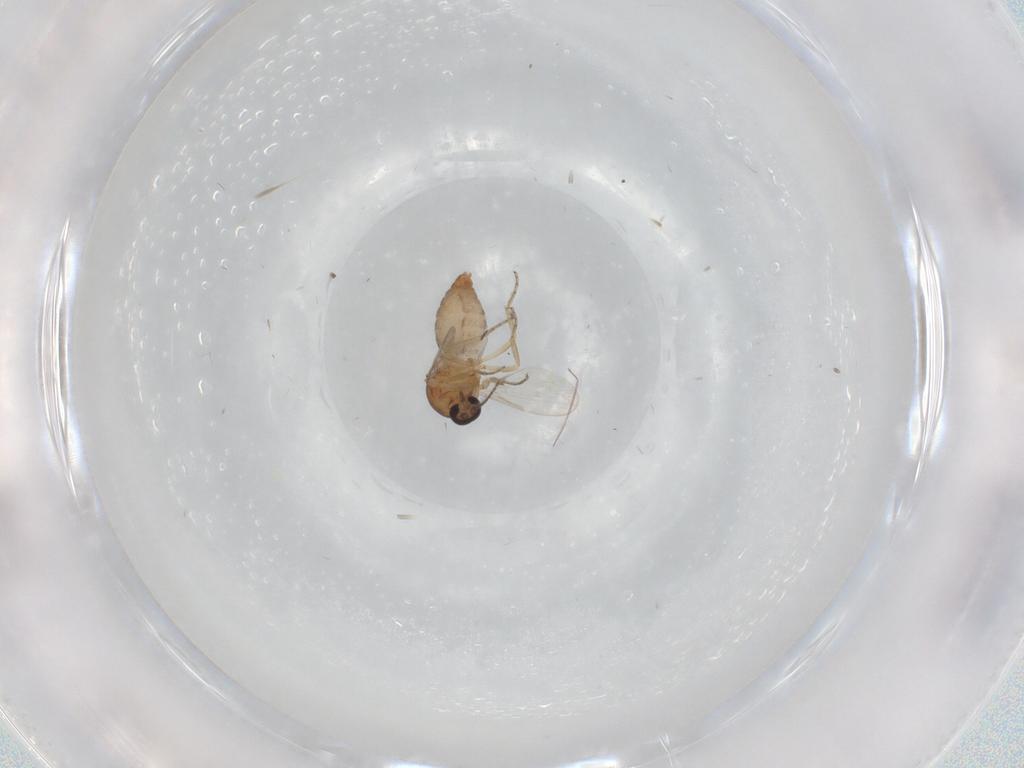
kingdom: Animalia
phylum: Arthropoda
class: Insecta
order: Diptera
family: Ceratopogonidae
